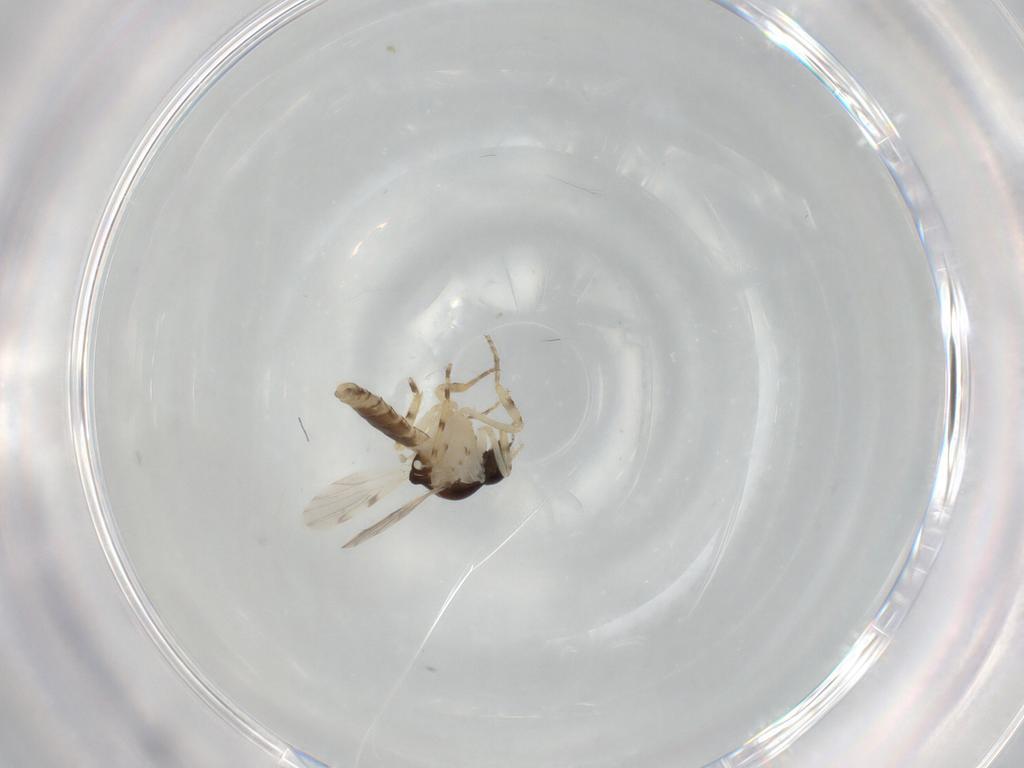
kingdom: Animalia
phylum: Arthropoda
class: Insecta
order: Diptera
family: Ceratopogonidae
